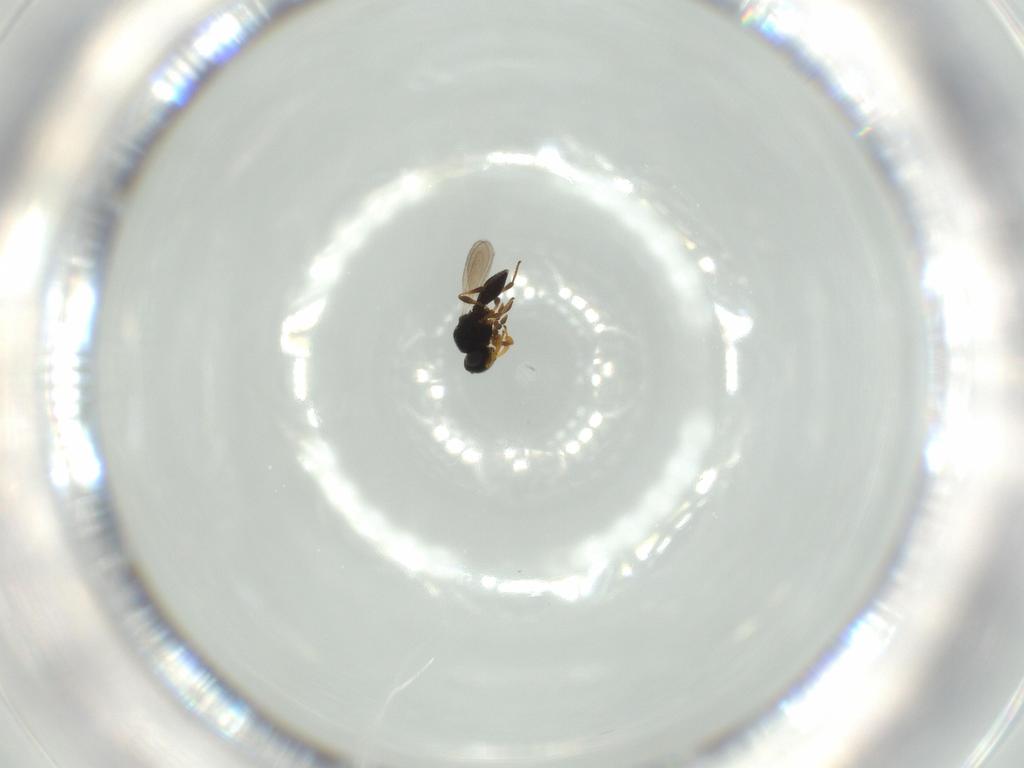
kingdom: Animalia
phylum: Arthropoda
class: Insecta
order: Hymenoptera
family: Platygastridae
